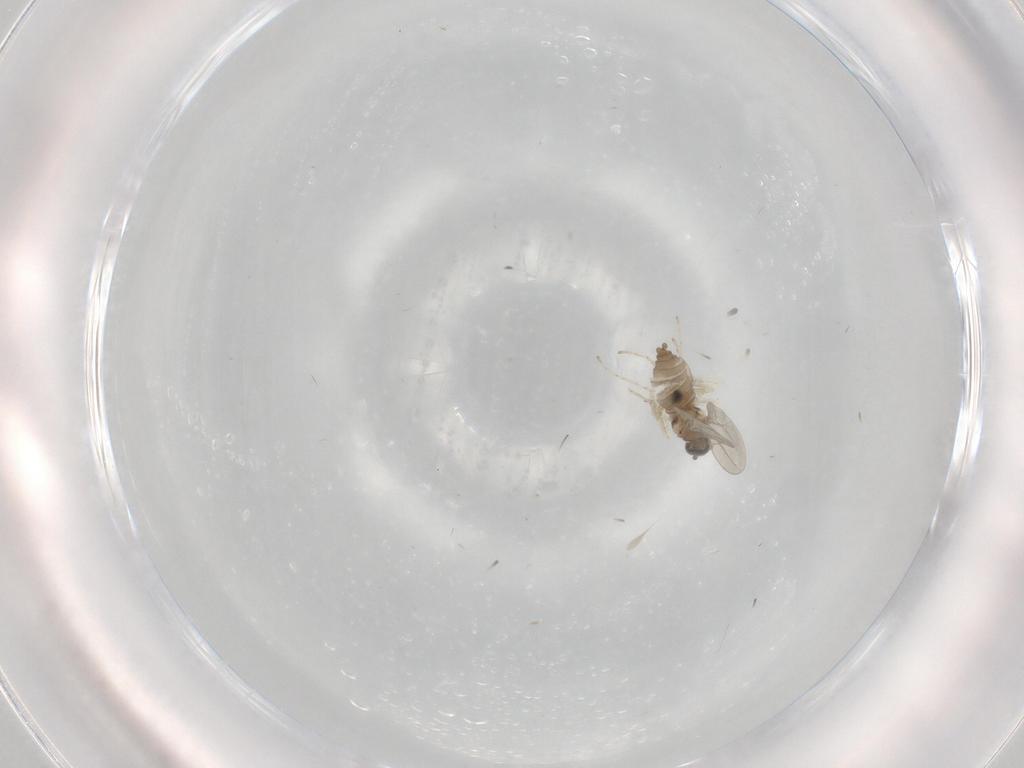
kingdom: Animalia
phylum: Arthropoda
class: Insecta
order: Diptera
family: Cecidomyiidae
